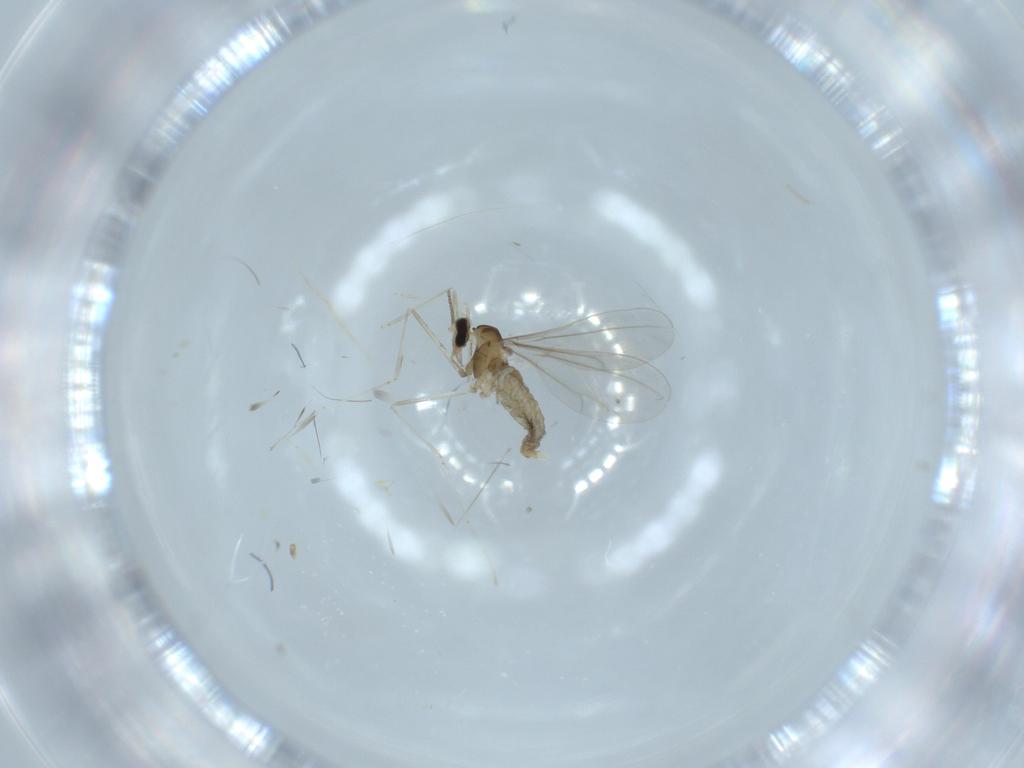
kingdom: Animalia
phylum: Arthropoda
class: Insecta
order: Diptera
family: Cecidomyiidae
